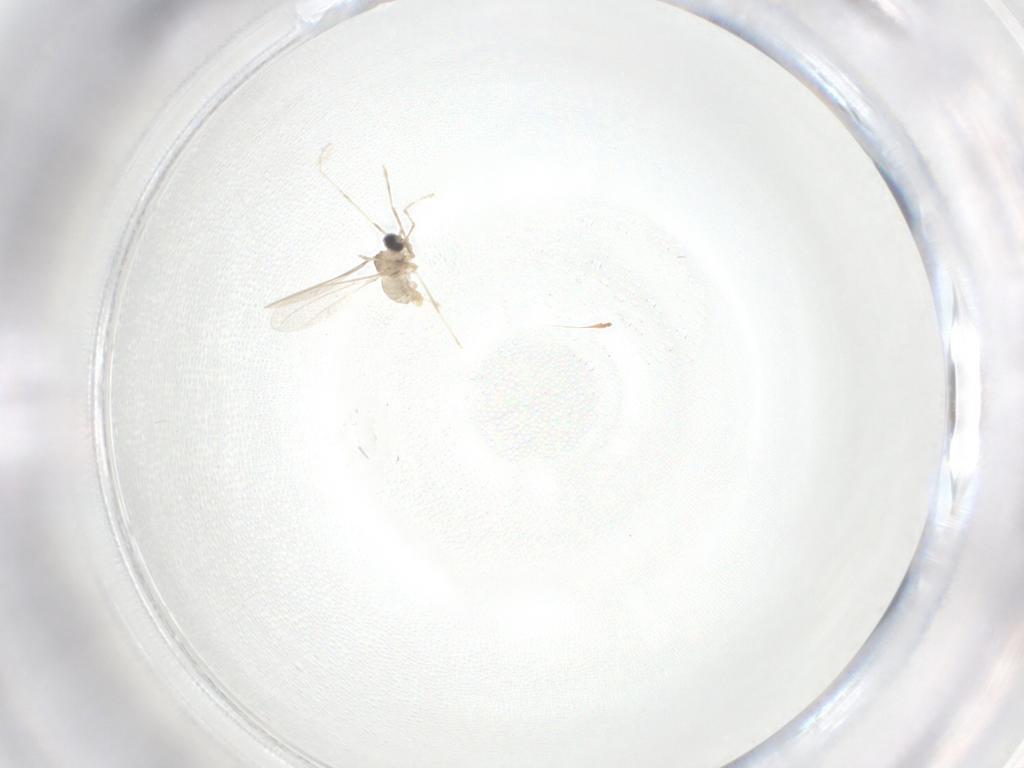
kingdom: Animalia
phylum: Arthropoda
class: Insecta
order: Diptera
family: Cecidomyiidae
